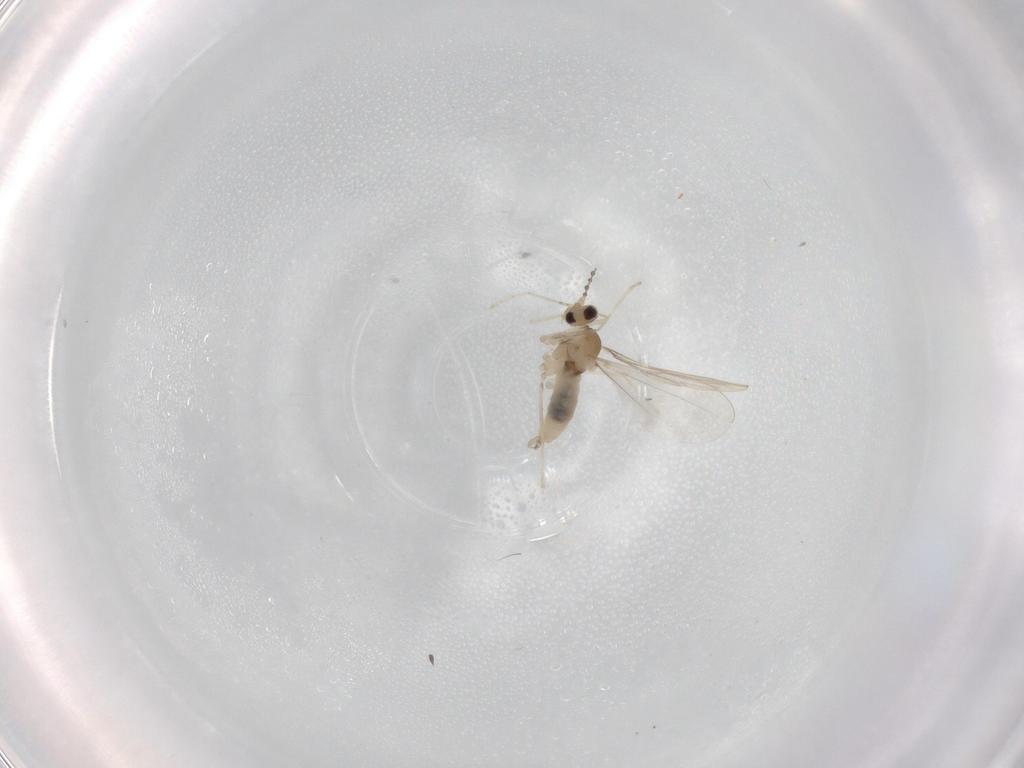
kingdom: Animalia
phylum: Arthropoda
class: Insecta
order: Diptera
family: Cecidomyiidae
